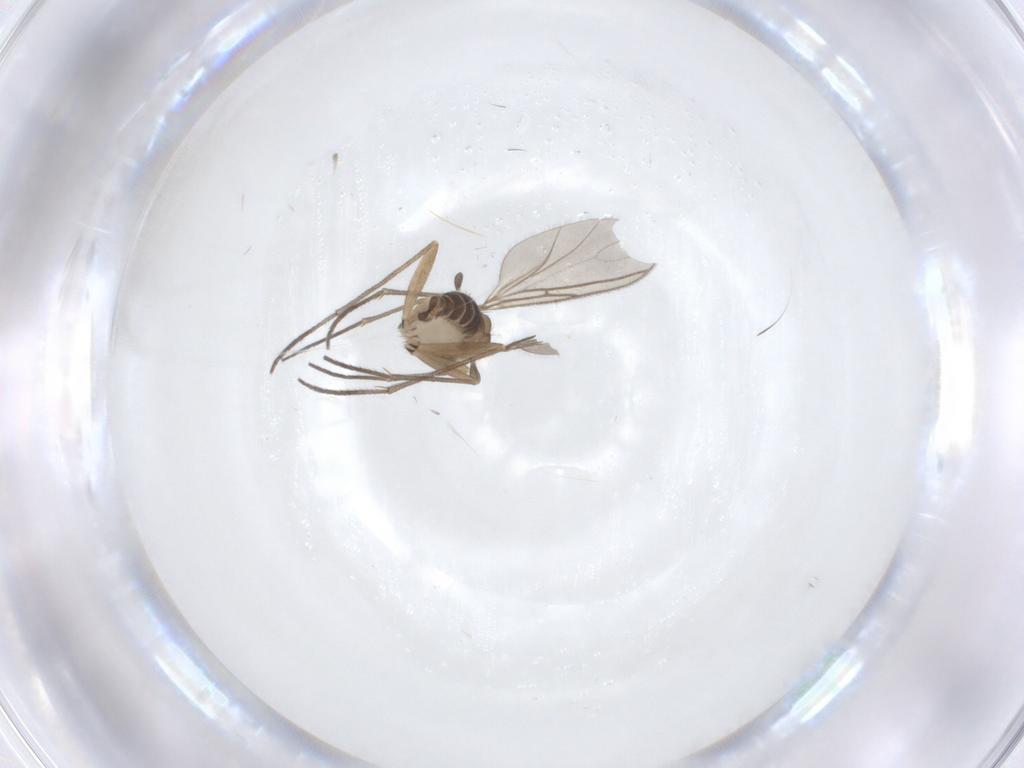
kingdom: Animalia
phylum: Arthropoda
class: Insecta
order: Diptera
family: Sciaridae
